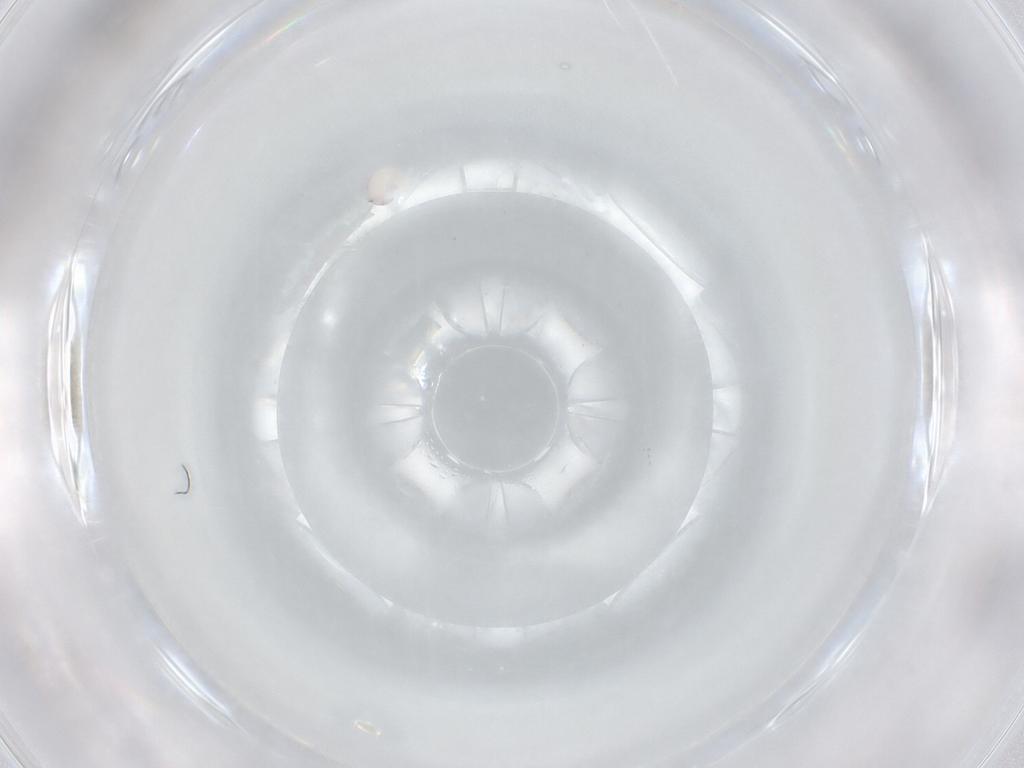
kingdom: Animalia
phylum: Arthropoda
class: Arachnida
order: Trombidiformes
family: Arrenuridae
